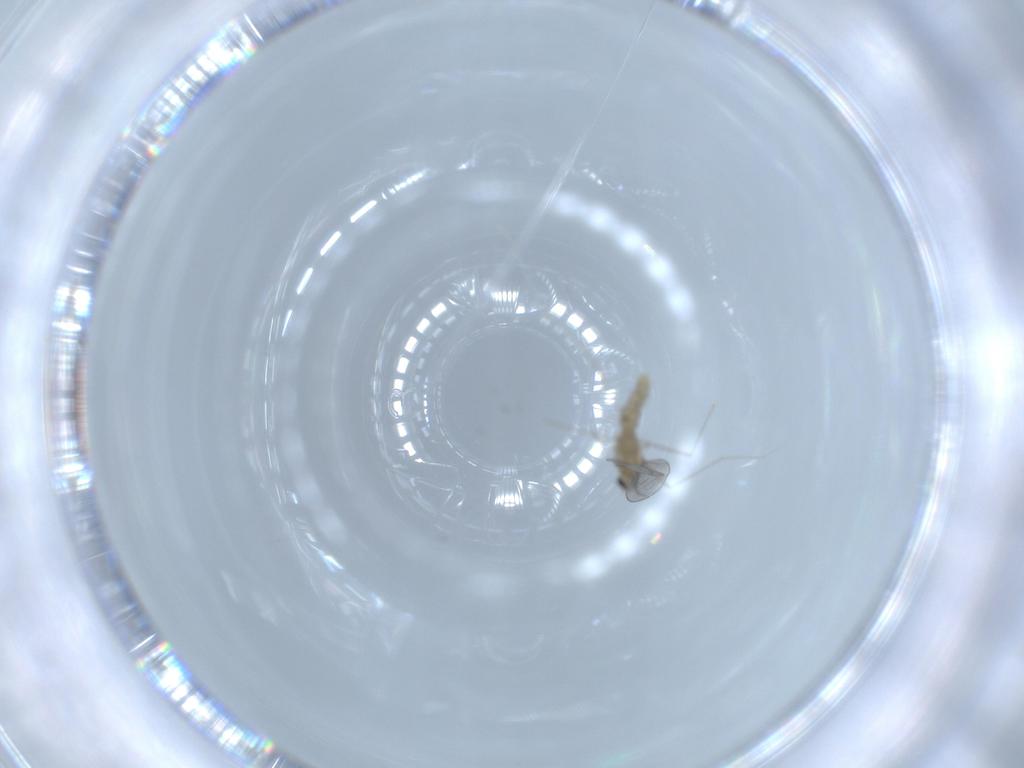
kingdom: Animalia
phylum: Arthropoda
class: Insecta
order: Diptera
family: Cecidomyiidae
